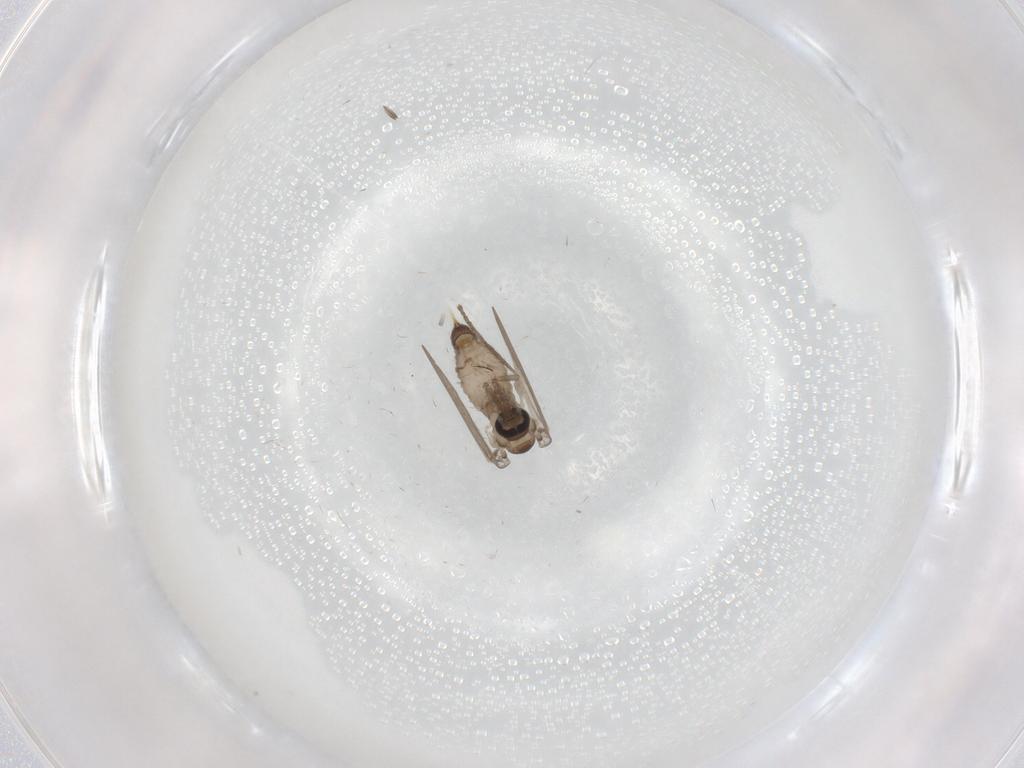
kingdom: Animalia
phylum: Arthropoda
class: Insecta
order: Diptera
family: Psychodidae
